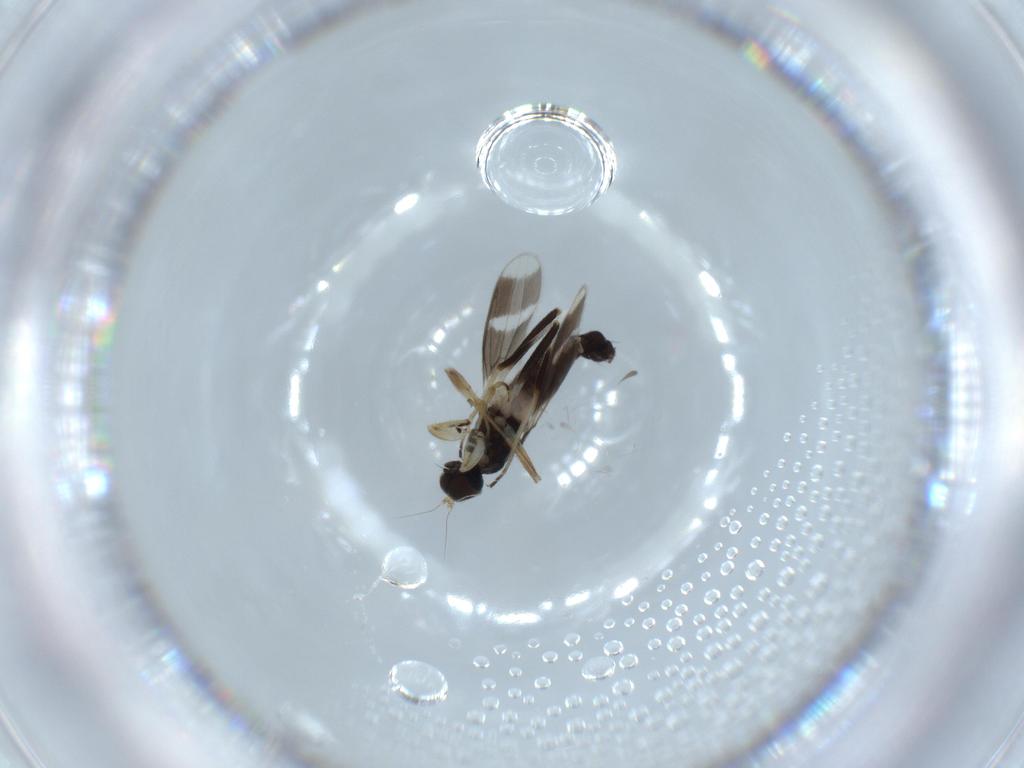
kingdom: Animalia
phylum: Arthropoda
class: Insecta
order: Diptera
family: Hybotidae
